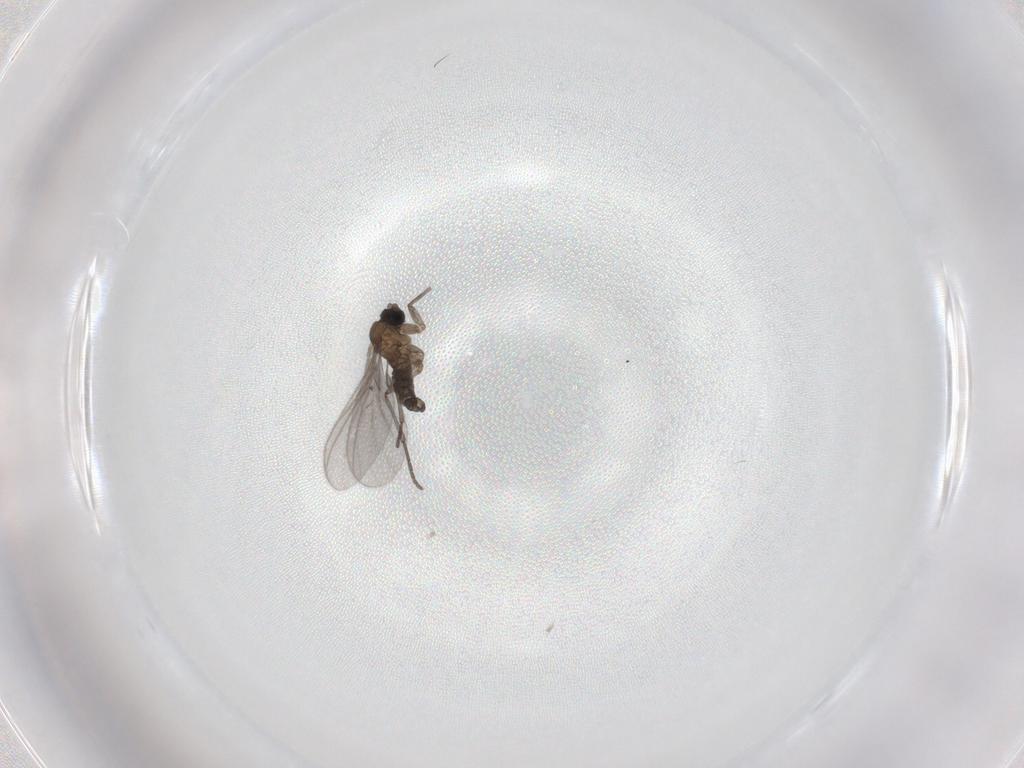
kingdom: Animalia
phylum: Arthropoda
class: Insecta
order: Diptera
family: Sciaridae
